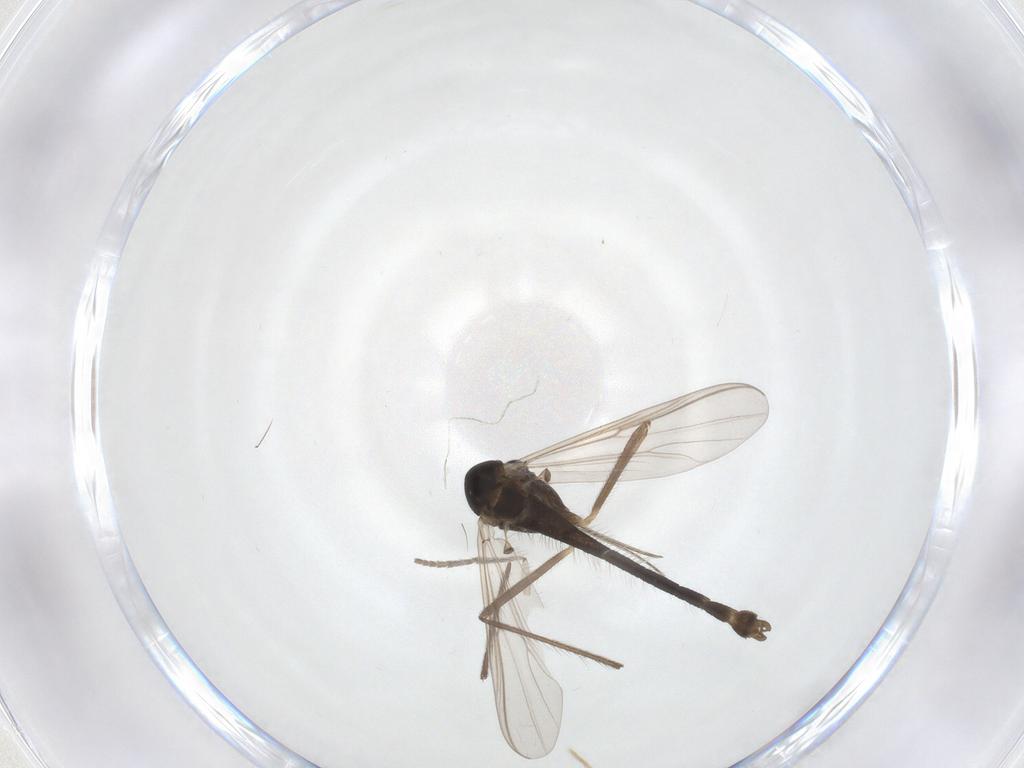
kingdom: Animalia
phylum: Arthropoda
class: Insecta
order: Diptera
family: Psychodidae
